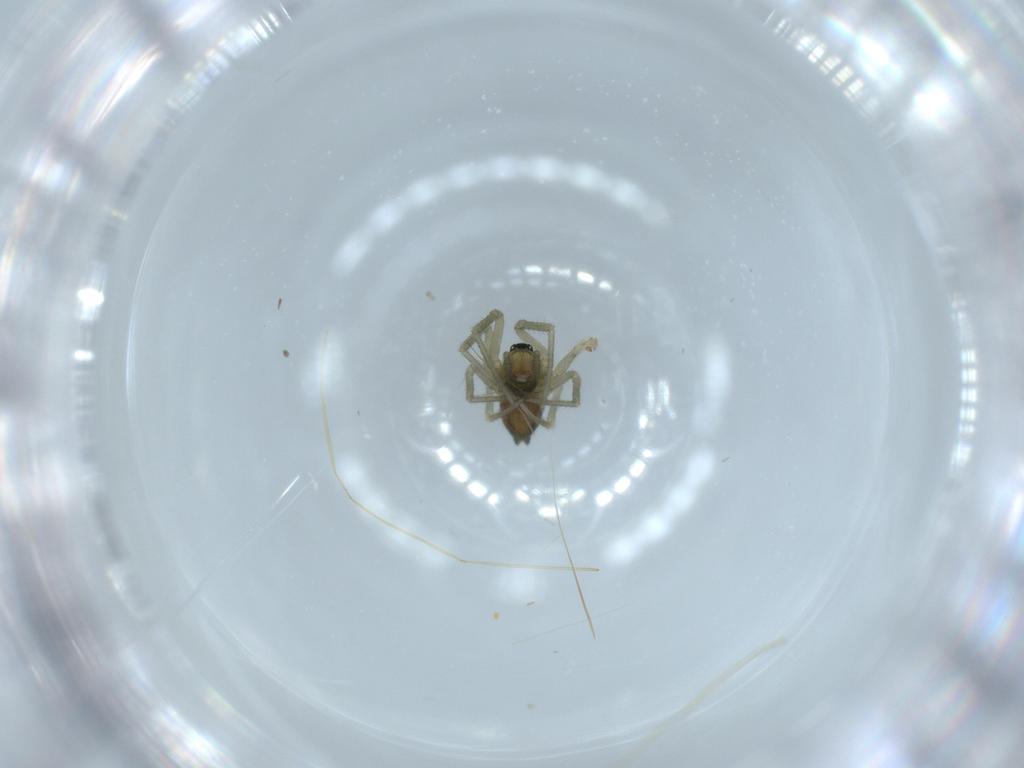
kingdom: Animalia
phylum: Arthropoda
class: Arachnida
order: Araneae
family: Linyphiidae
